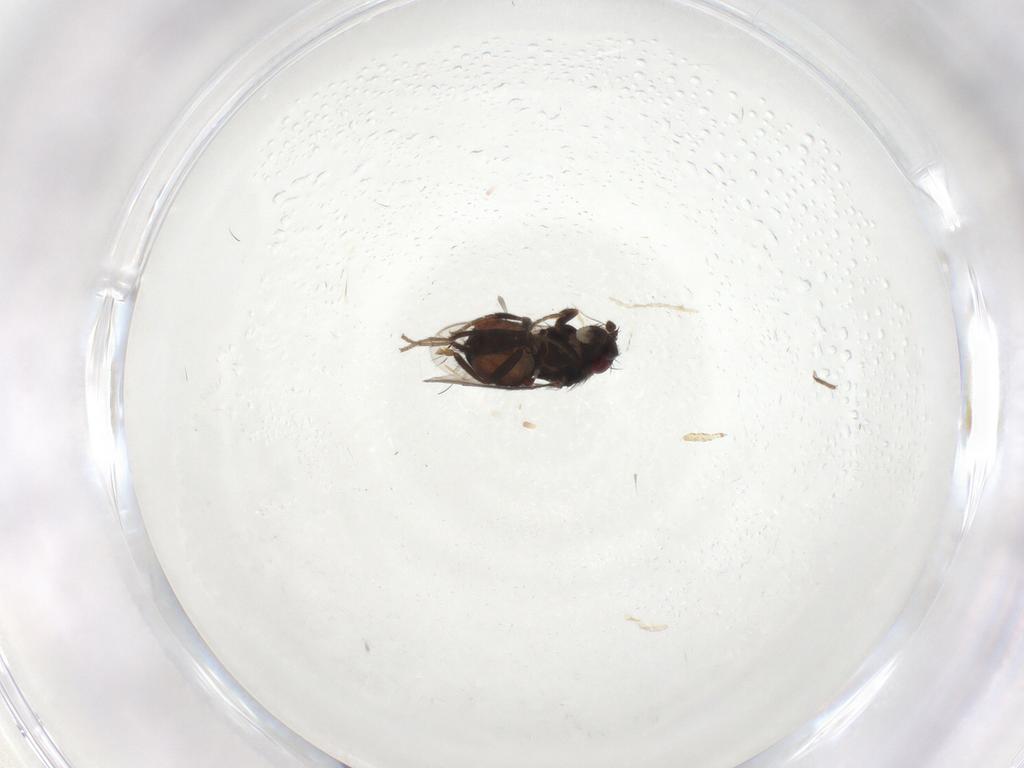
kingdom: Animalia
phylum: Arthropoda
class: Insecta
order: Diptera
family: Sphaeroceridae
